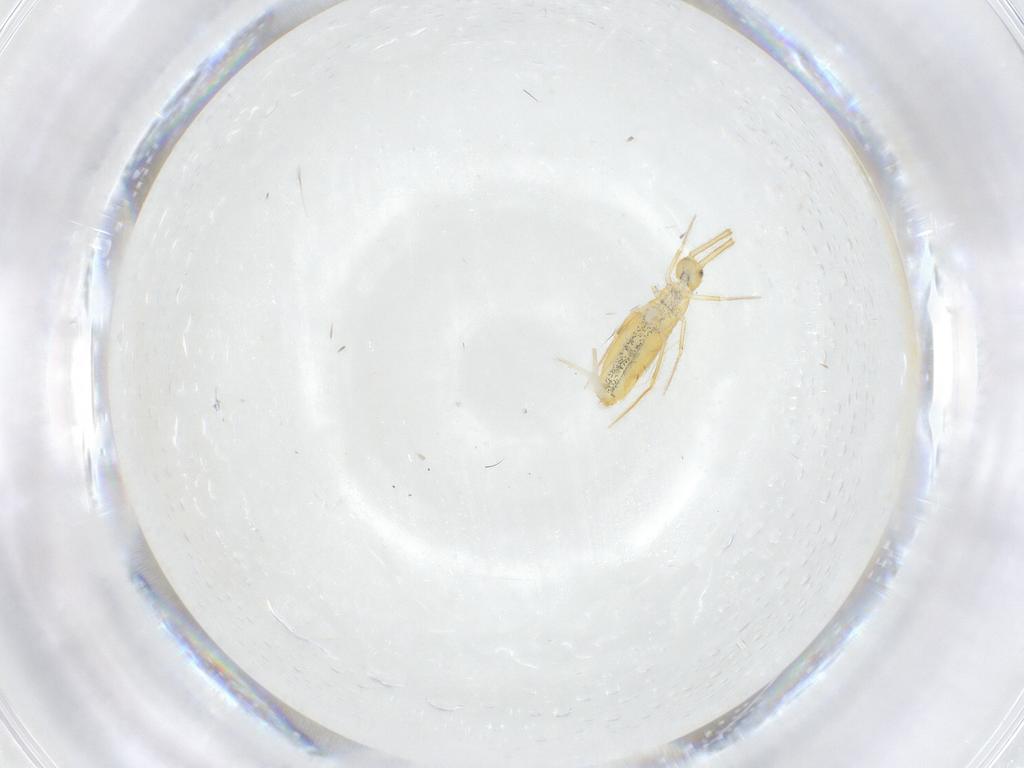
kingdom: Animalia
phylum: Arthropoda
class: Collembola
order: Entomobryomorpha
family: Paronellidae
